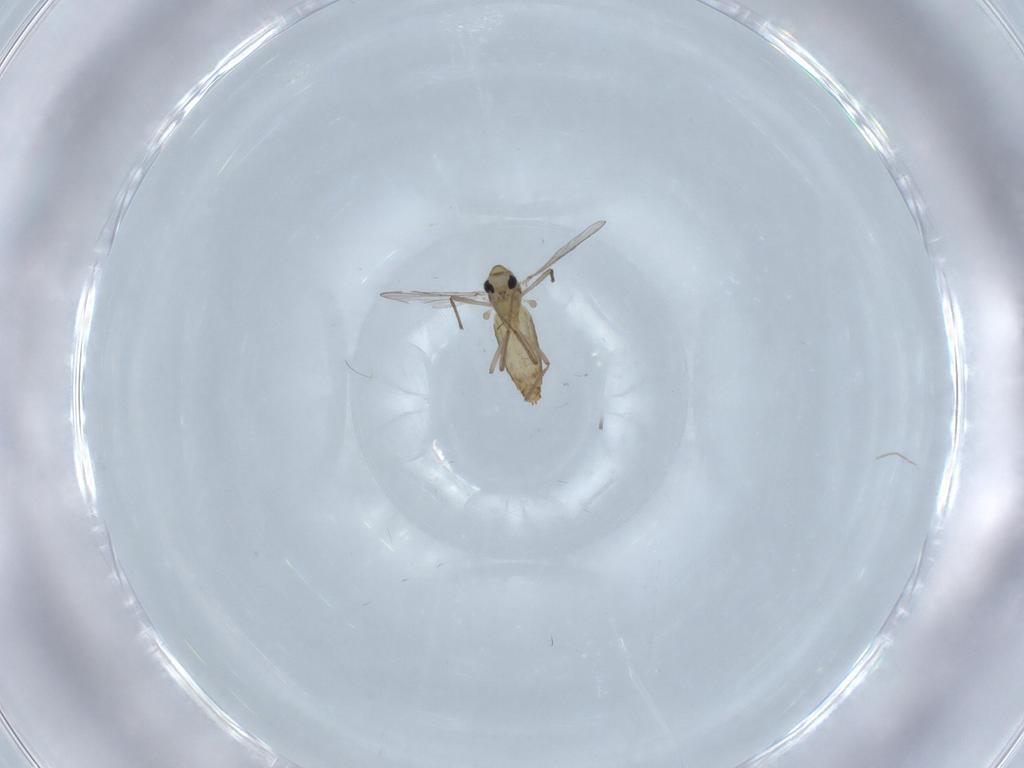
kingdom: Animalia
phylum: Arthropoda
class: Insecta
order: Diptera
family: Chironomidae
